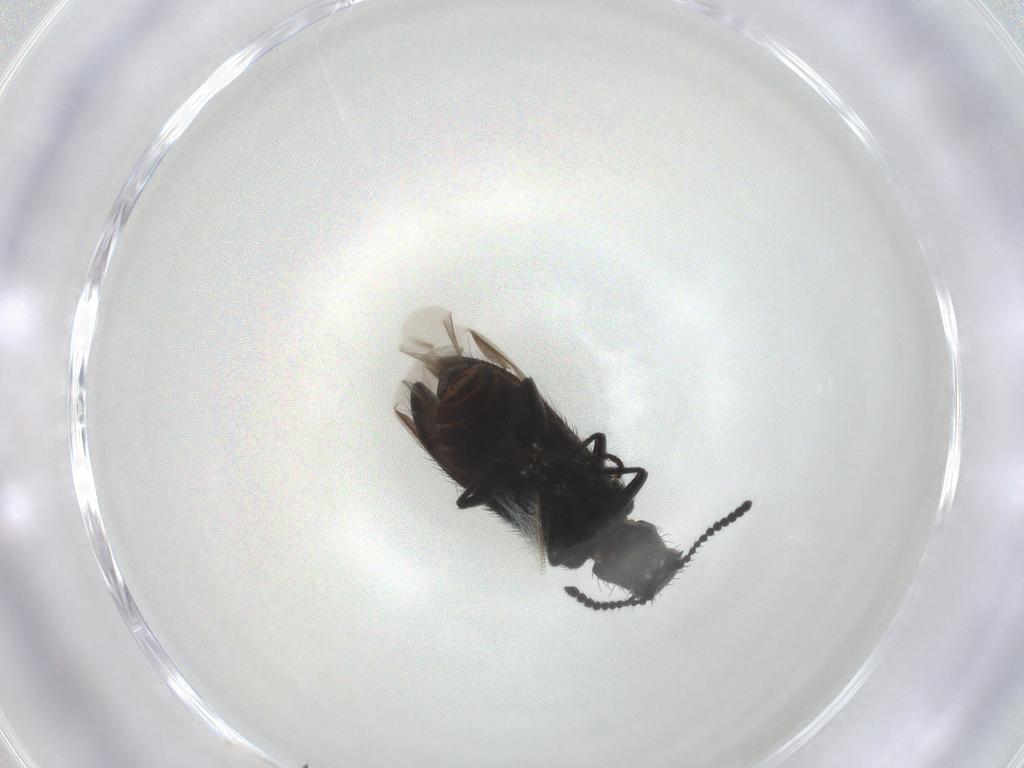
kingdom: Animalia
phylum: Arthropoda
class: Insecta
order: Coleoptera
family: Melyridae
